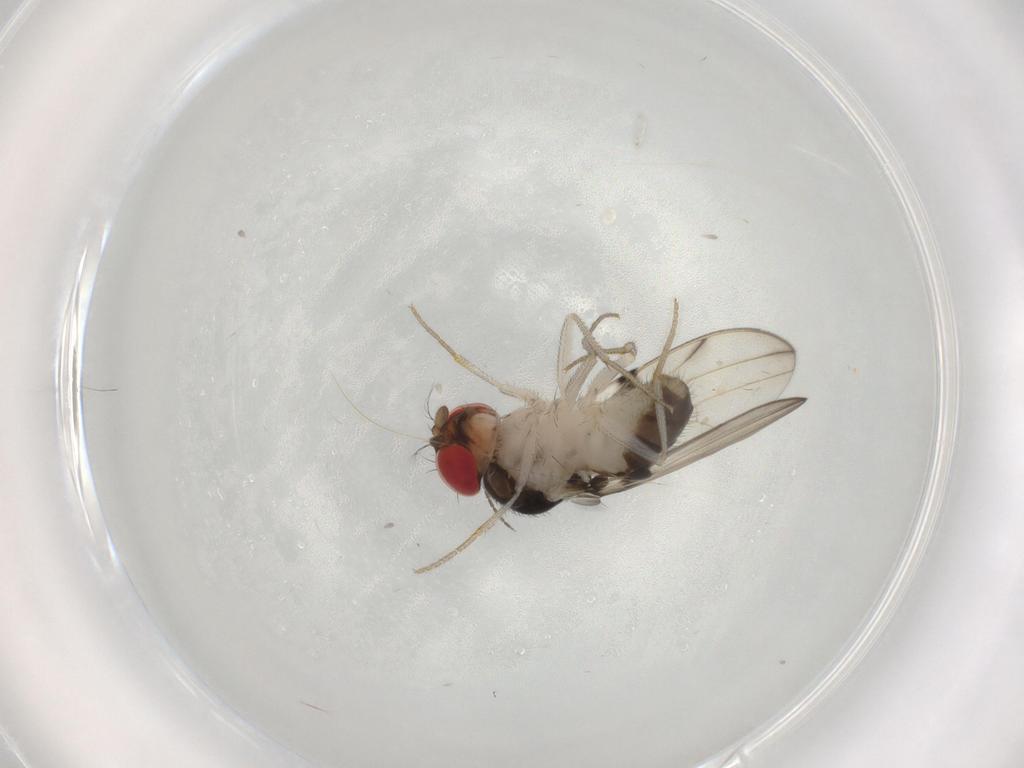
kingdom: Animalia
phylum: Arthropoda
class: Insecta
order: Diptera
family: Drosophilidae
